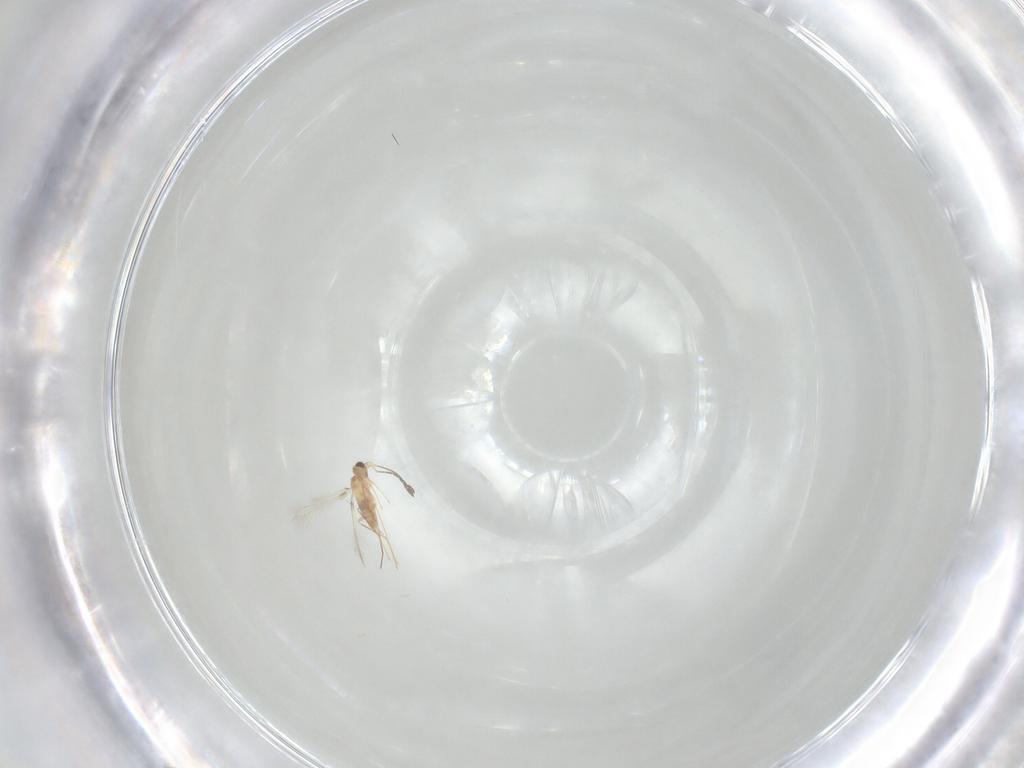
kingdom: Animalia
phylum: Arthropoda
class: Insecta
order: Hymenoptera
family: Mymaridae
